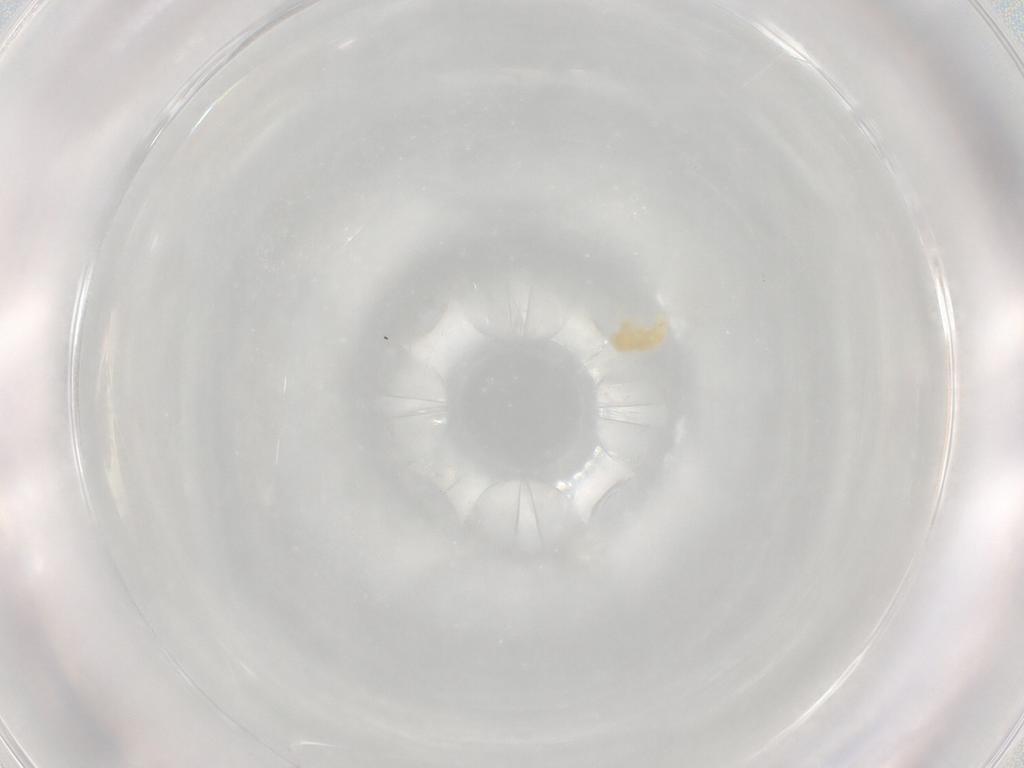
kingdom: Animalia
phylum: Arthropoda
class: Arachnida
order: Trombidiformes
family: Eupodidae
